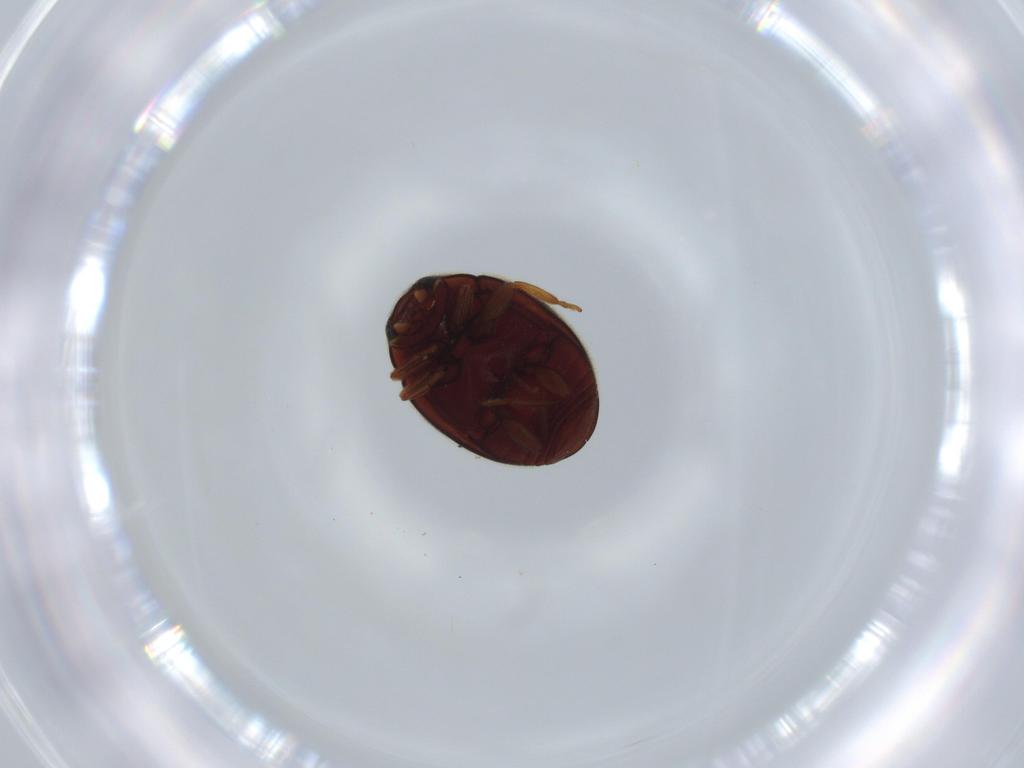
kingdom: Animalia
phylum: Arthropoda
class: Insecta
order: Coleoptera
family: Coccinellidae
